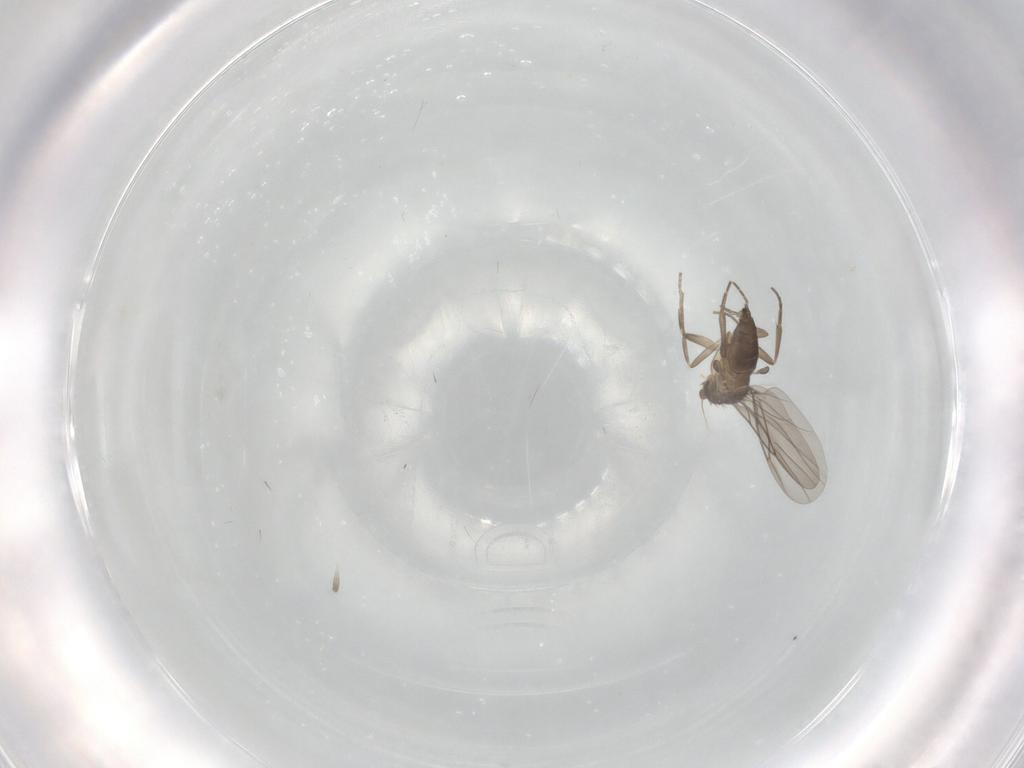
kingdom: Animalia
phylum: Arthropoda
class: Insecta
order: Diptera
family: Phoridae
